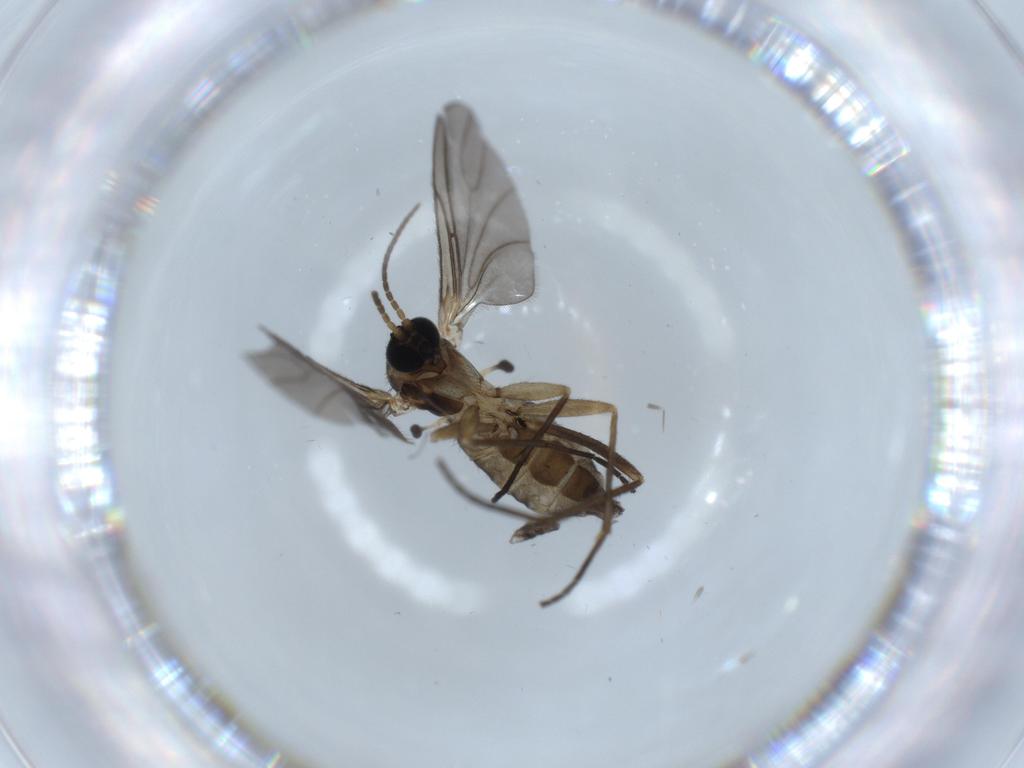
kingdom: Animalia
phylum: Arthropoda
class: Insecta
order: Diptera
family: Sciaridae
